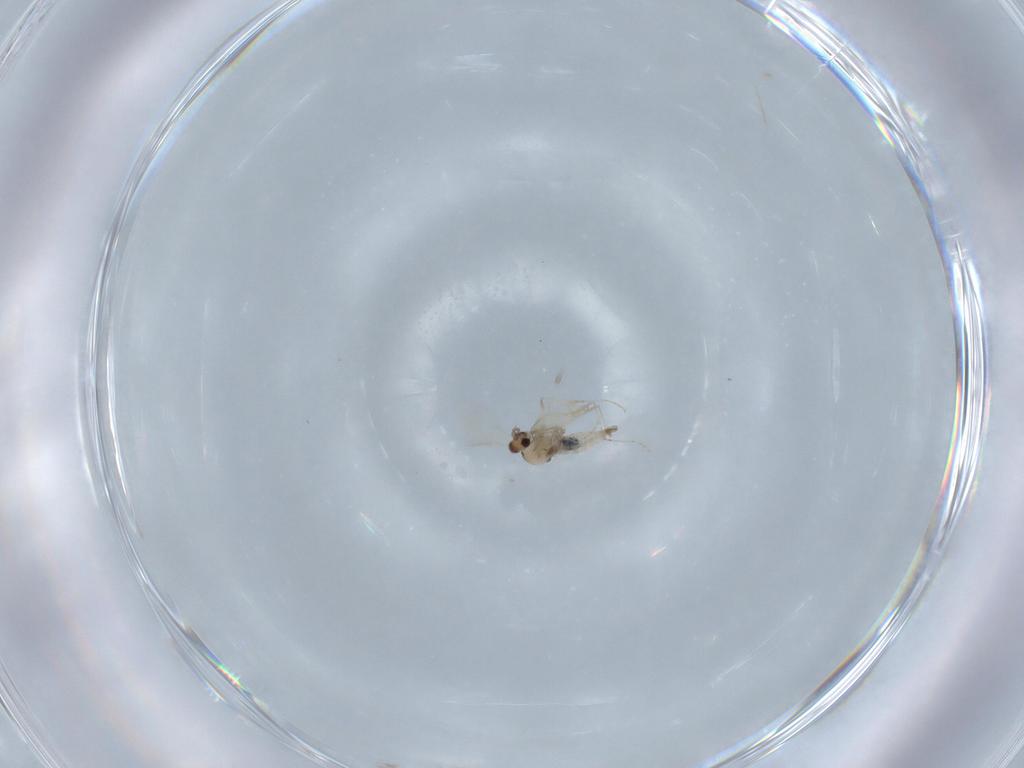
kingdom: Animalia
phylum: Arthropoda
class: Insecta
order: Diptera
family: Cecidomyiidae
